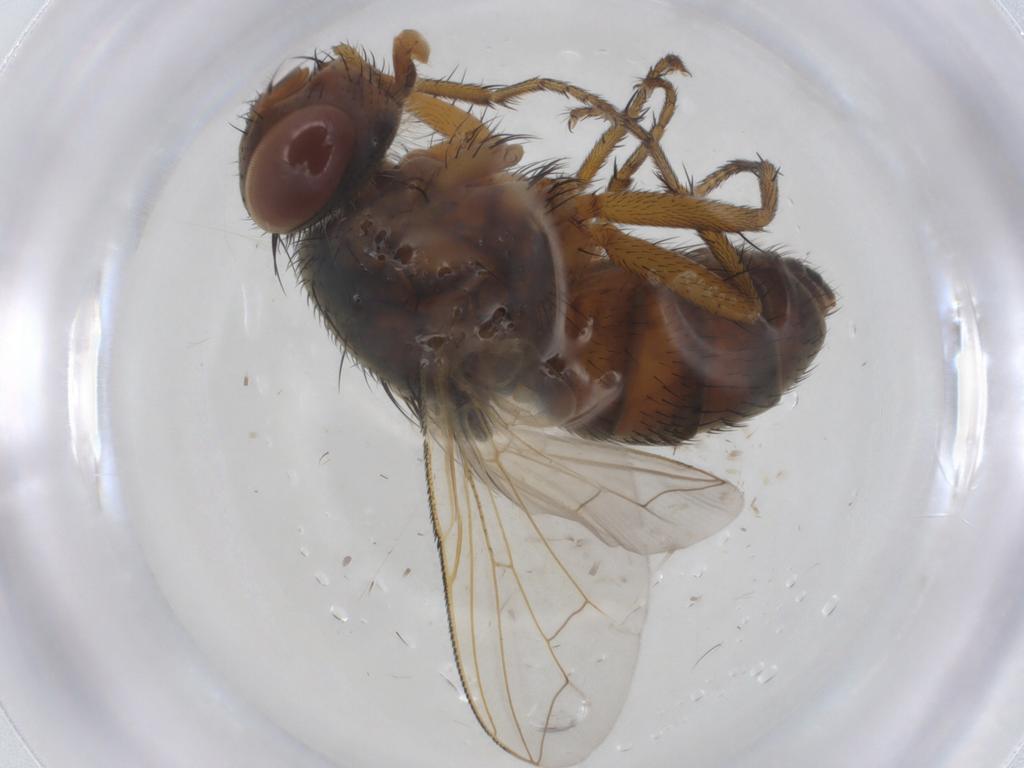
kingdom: Animalia
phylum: Arthropoda
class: Insecta
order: Diptera
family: Sarcophagidae
